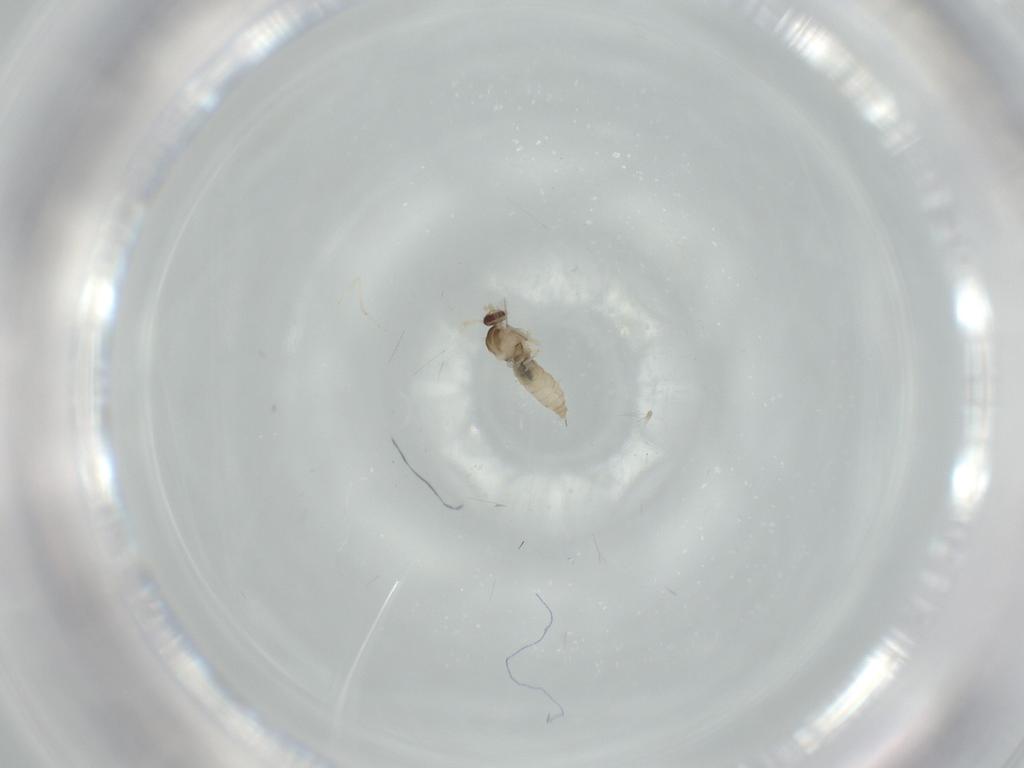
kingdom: Animalia
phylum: Arthropoda
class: Insecta
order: Diptera
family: Cecidomyiidae
